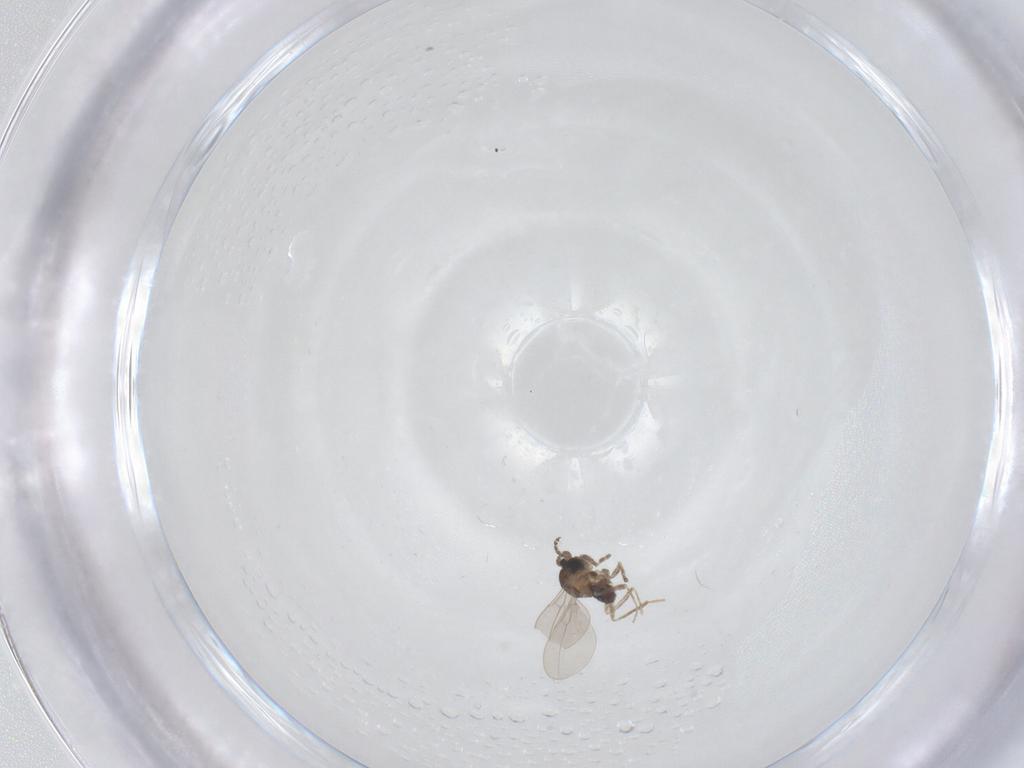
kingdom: Animalia
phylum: Arthropoda
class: Insecta
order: Diptera
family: Cecidomyiidae
